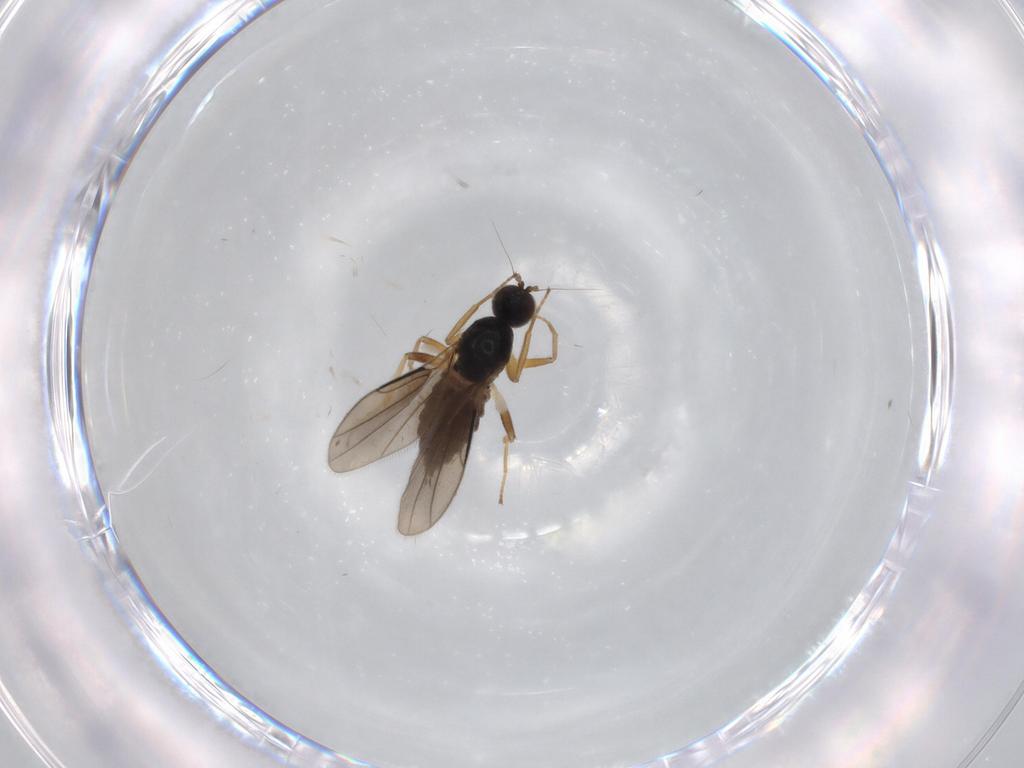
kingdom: Animalia
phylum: Arthropoda
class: Insecta
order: Diptera
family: Hybotidae
